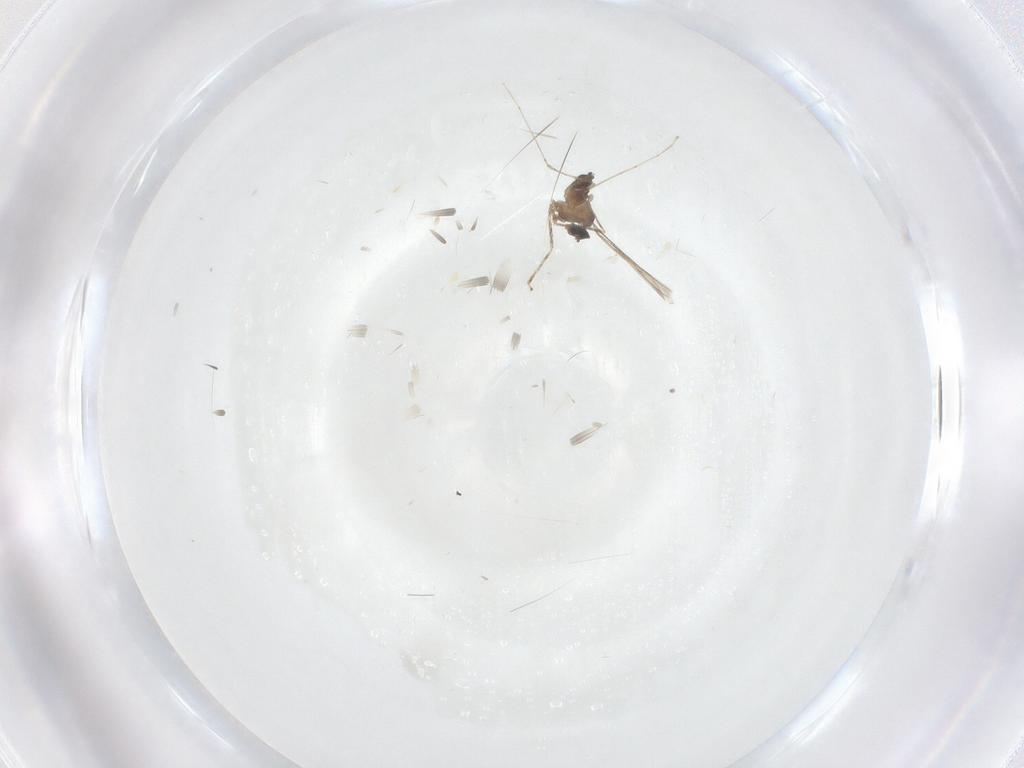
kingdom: Animalia
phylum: Arthropoda
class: Insecta
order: Diptera
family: Cecidomyiidae
